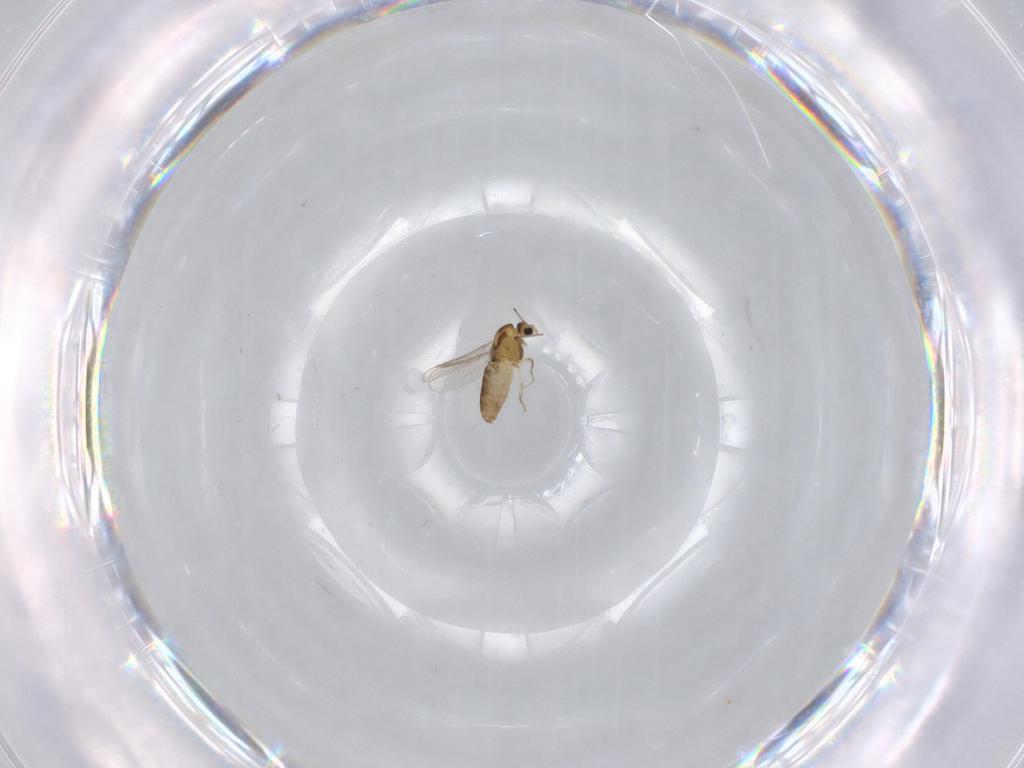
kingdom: Animalia
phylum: Arthropoda
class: Insecta
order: Diptera
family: Chironomidae
